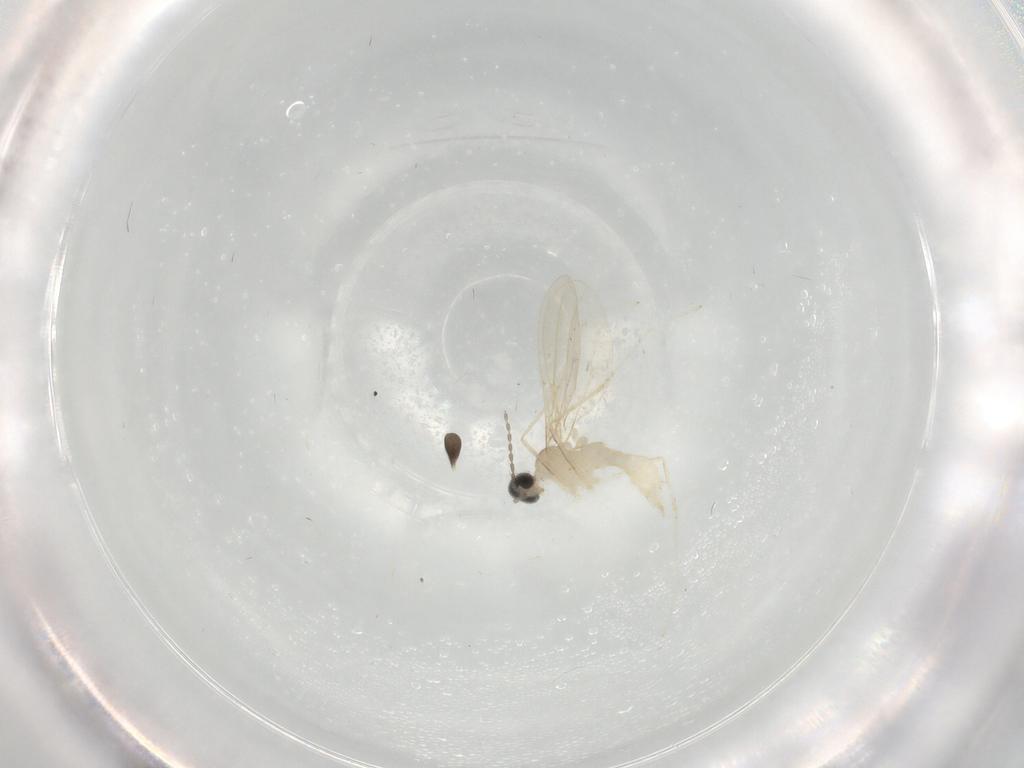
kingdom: Animalia
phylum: Arthropoda
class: Insecta
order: Diptera
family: Cecidomyiidae
